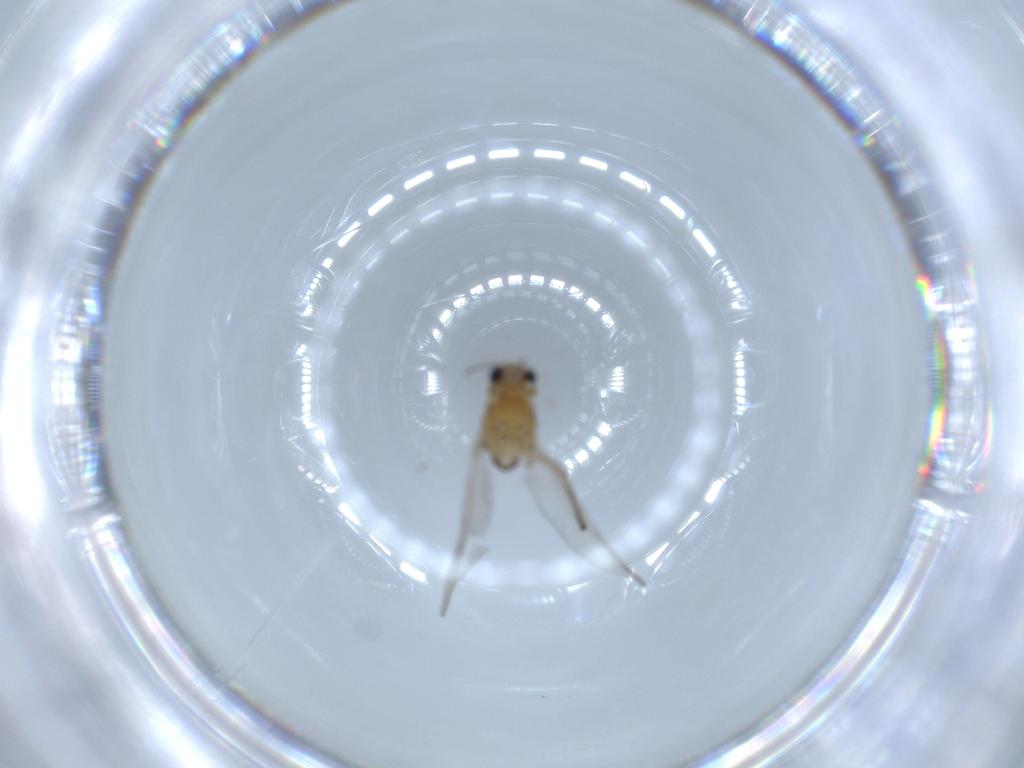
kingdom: Animalia
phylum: Arthropoda
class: Insecta
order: Diptera
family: Chironomidae
